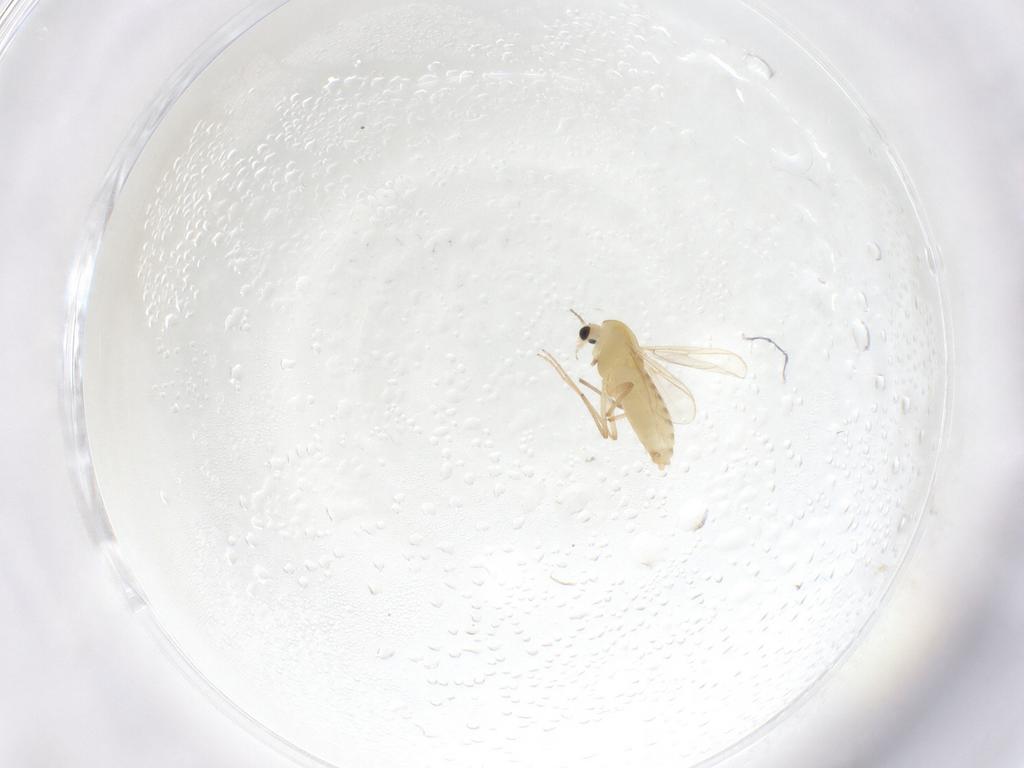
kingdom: Animalia
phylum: Arthropoda
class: Insecta
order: Diptera
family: Chironomidae
